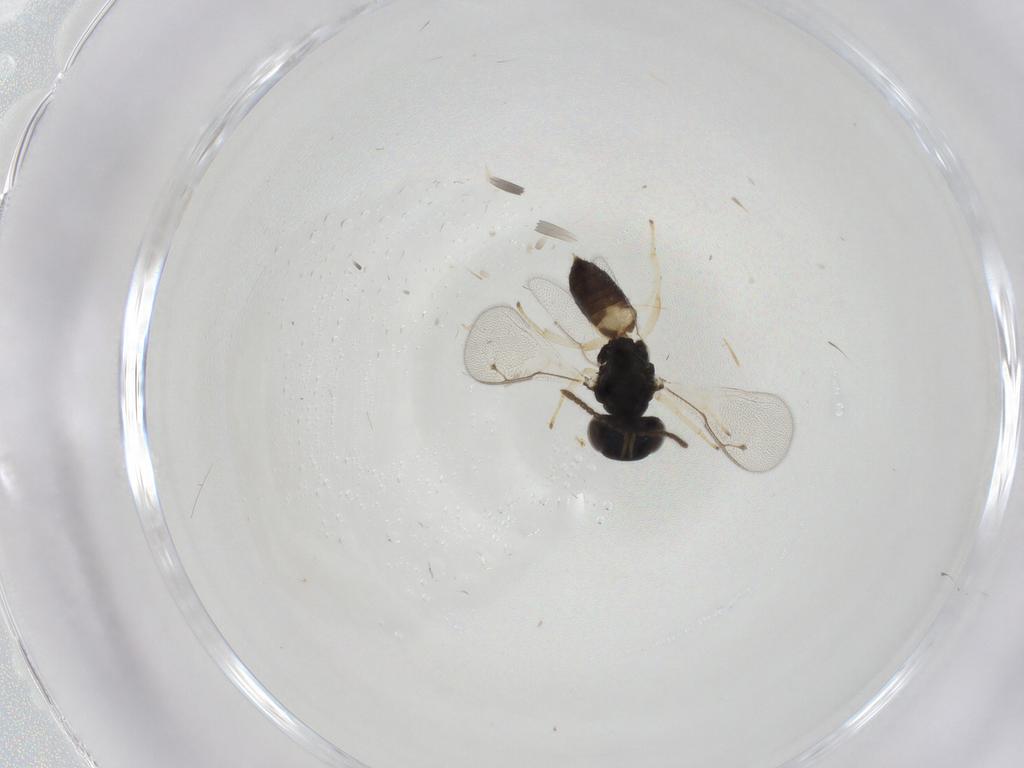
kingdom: Animalia
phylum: Arthropoda
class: Insecta
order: Hymenoptera
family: Pteromalidae
